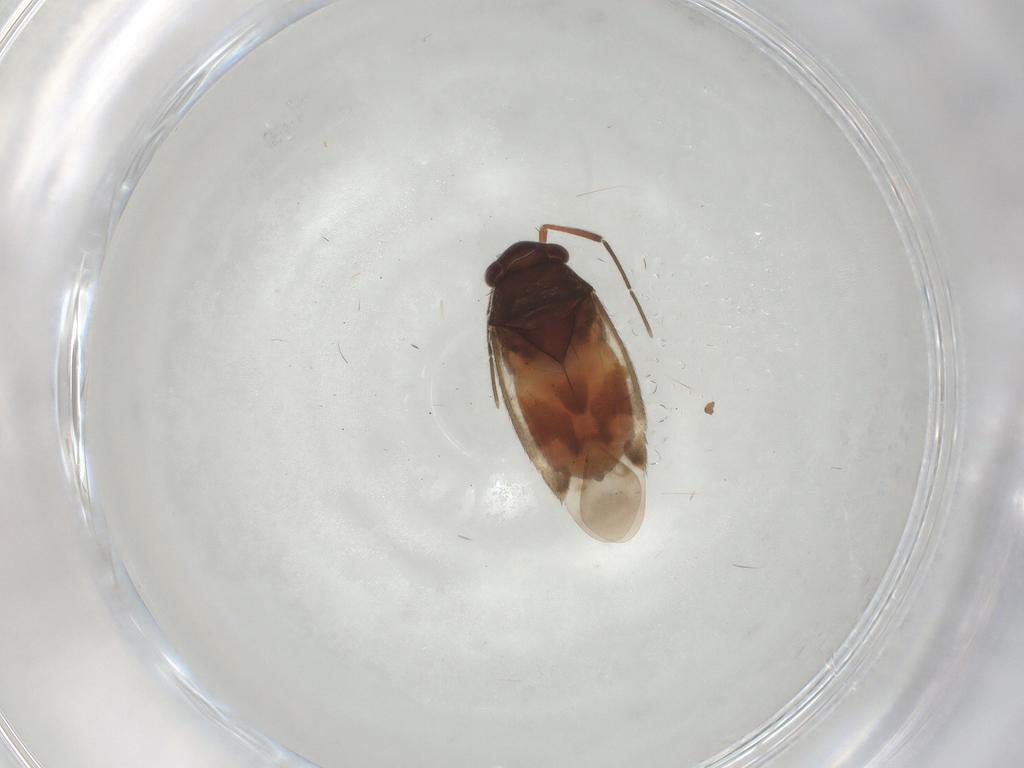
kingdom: Animalia
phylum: Arthropoda
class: Insecta
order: Hemiptera
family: Miridae
